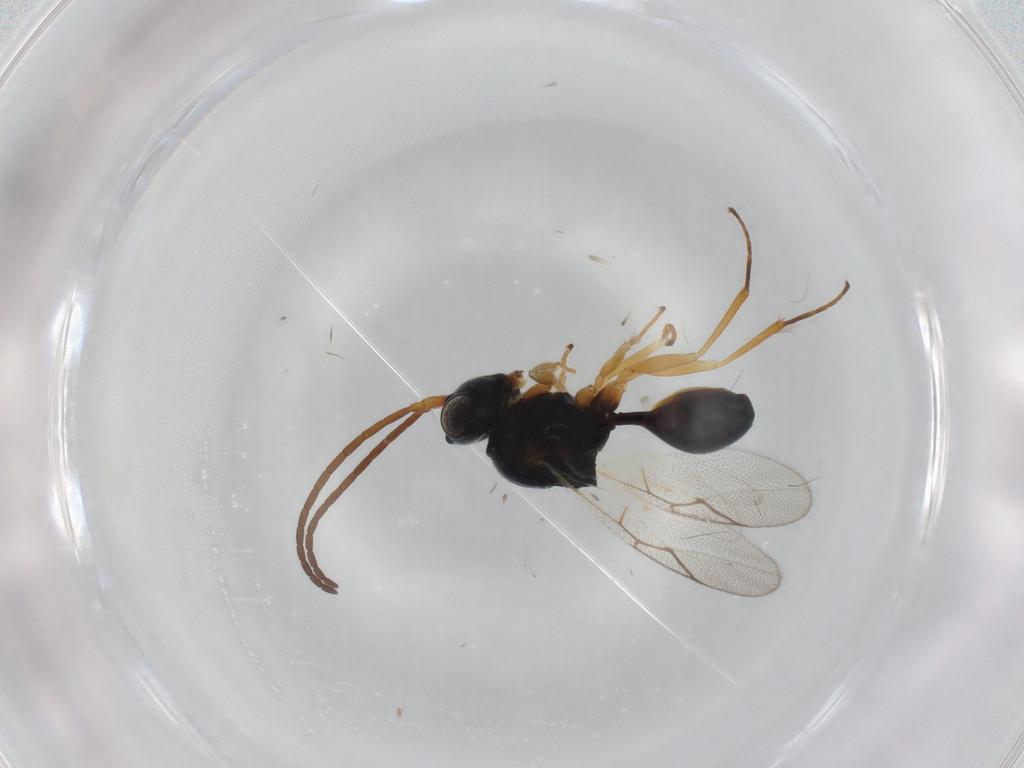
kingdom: Animalia
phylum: Arthropoda
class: Insecta
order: Hymenoptera
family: Figitidae
